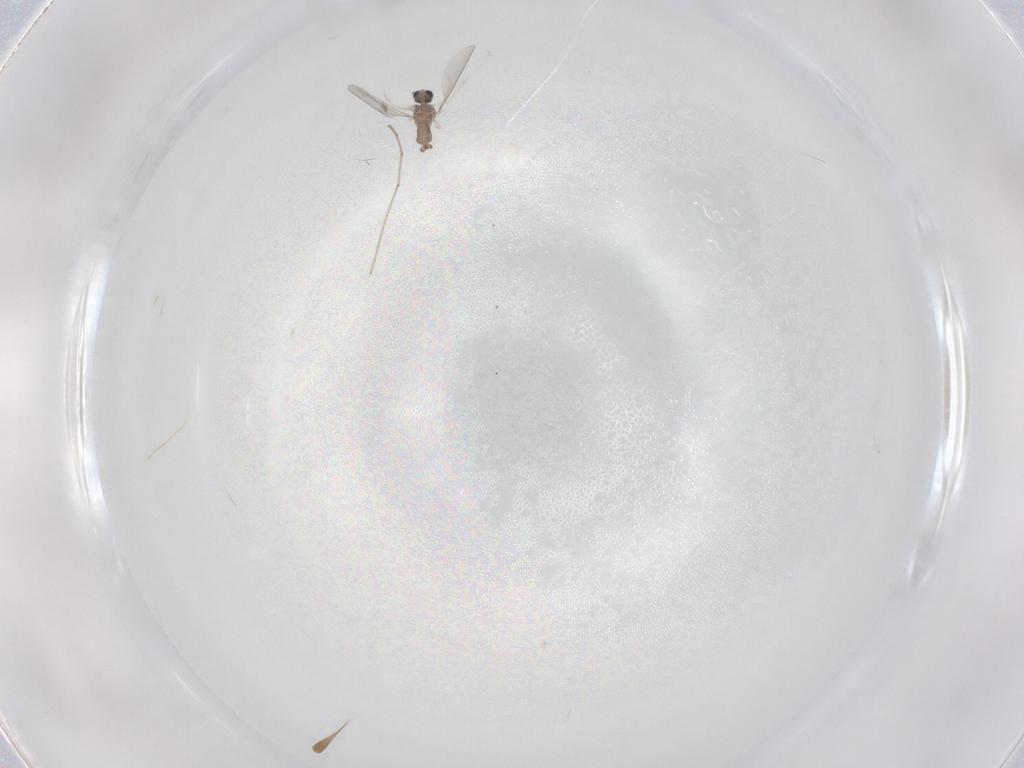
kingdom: Animalia
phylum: Arthropoda
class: Insecta
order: Diptera
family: Cecidomyiidae
